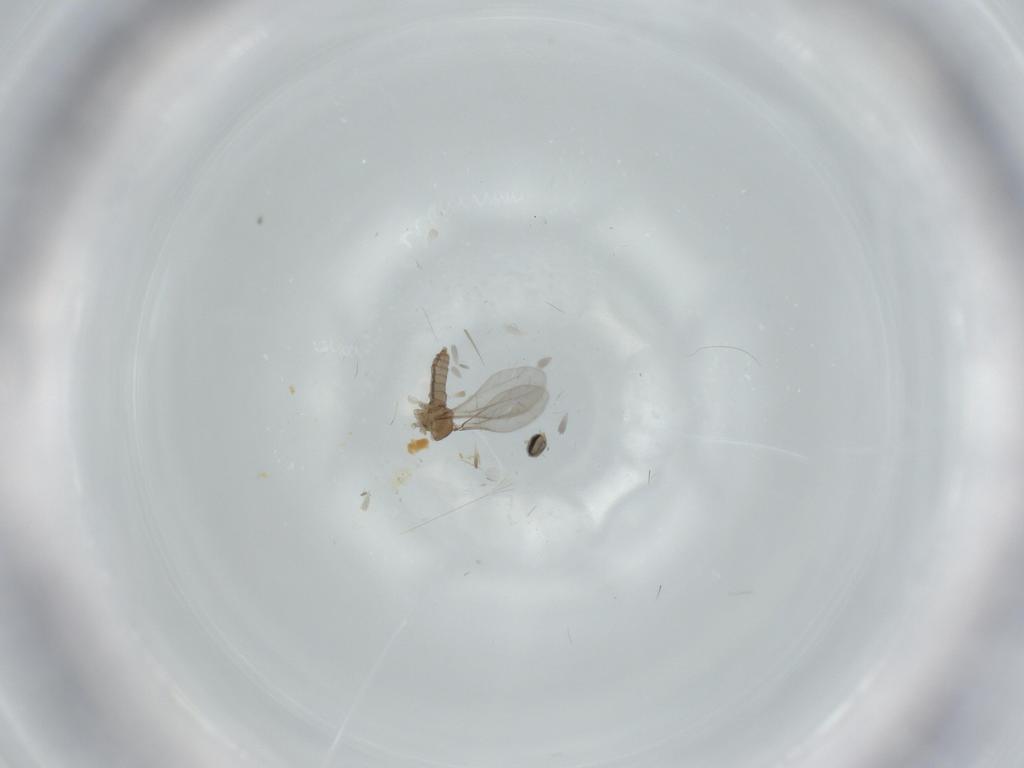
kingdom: Animalia
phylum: Arthropoda
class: Insecta
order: Diptera
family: Cecidomyiidae
